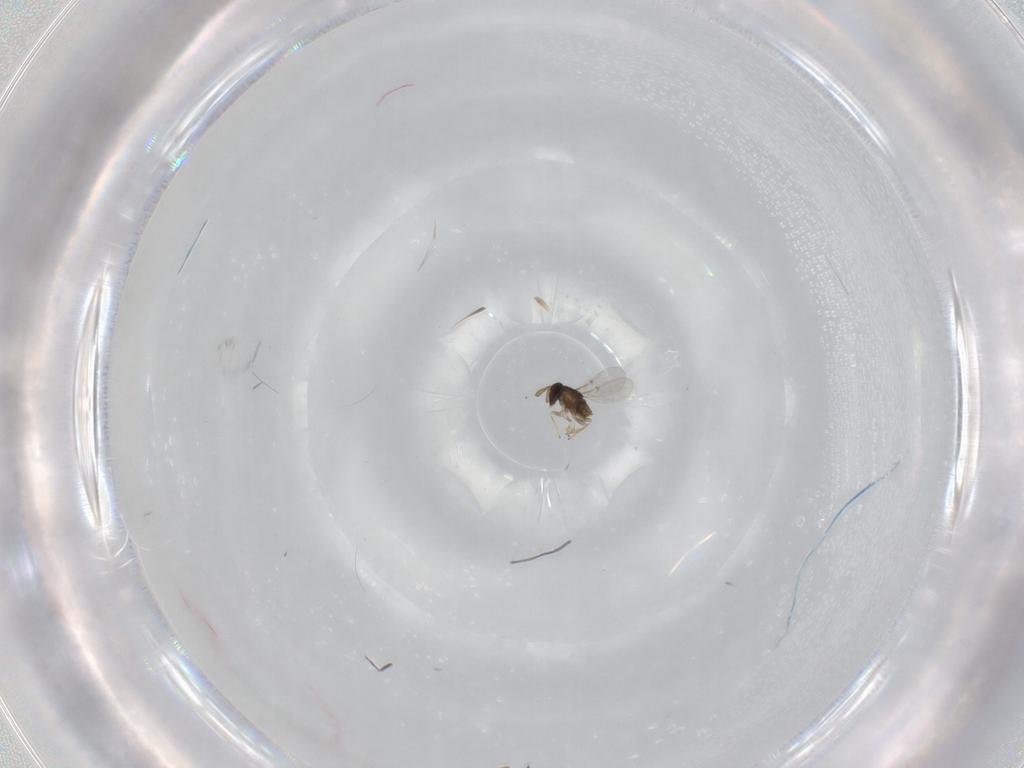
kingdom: Animalia
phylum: Arthropoda
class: Insecta
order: Hymenoptera
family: Encyrtidae
